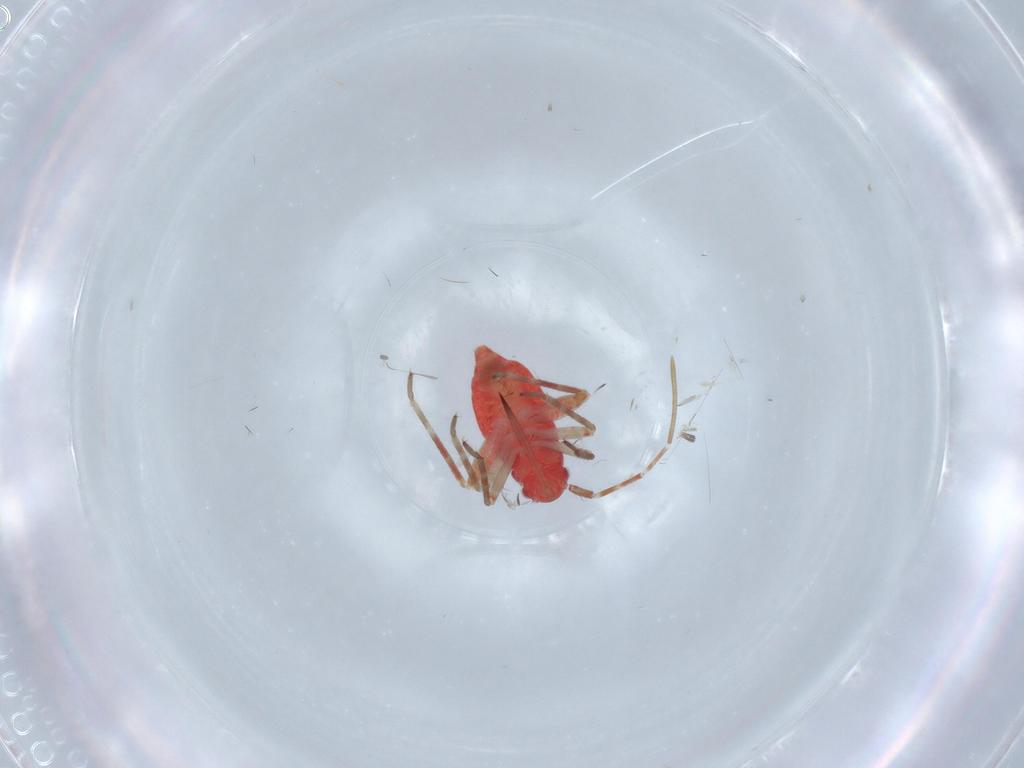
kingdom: Animalia
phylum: Arthropoda
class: Insecta
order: Hemiptera
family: Miridae
